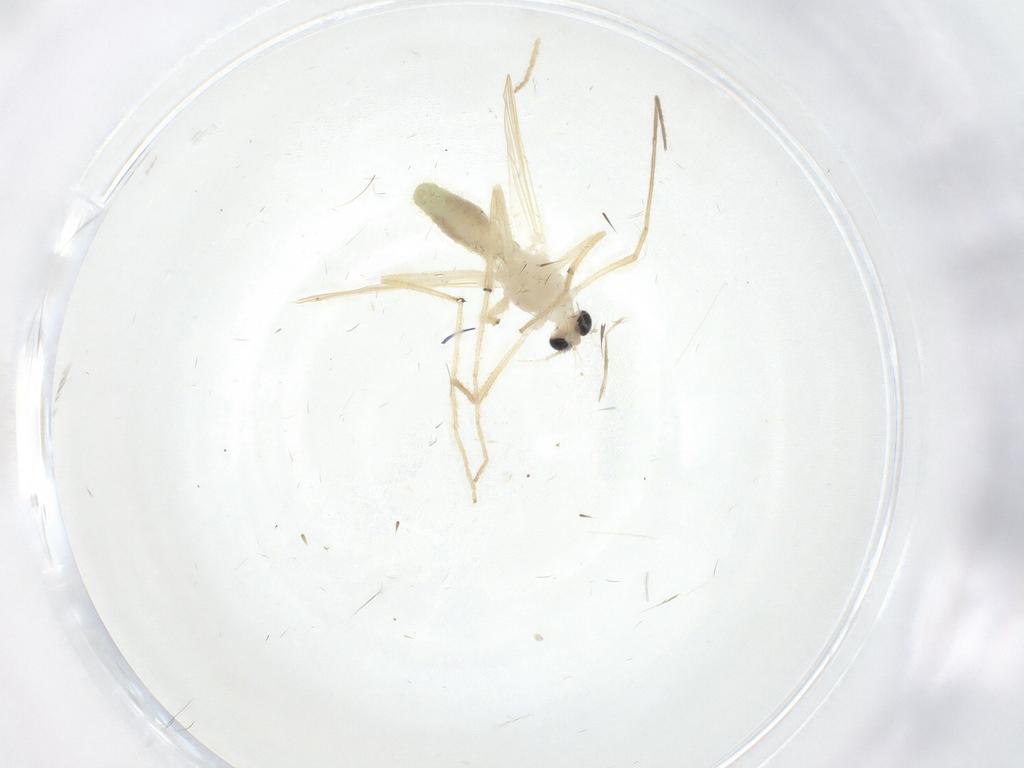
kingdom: Animalia
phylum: Arthropoda
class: Insecta
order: Diptera
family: Chironomidae
